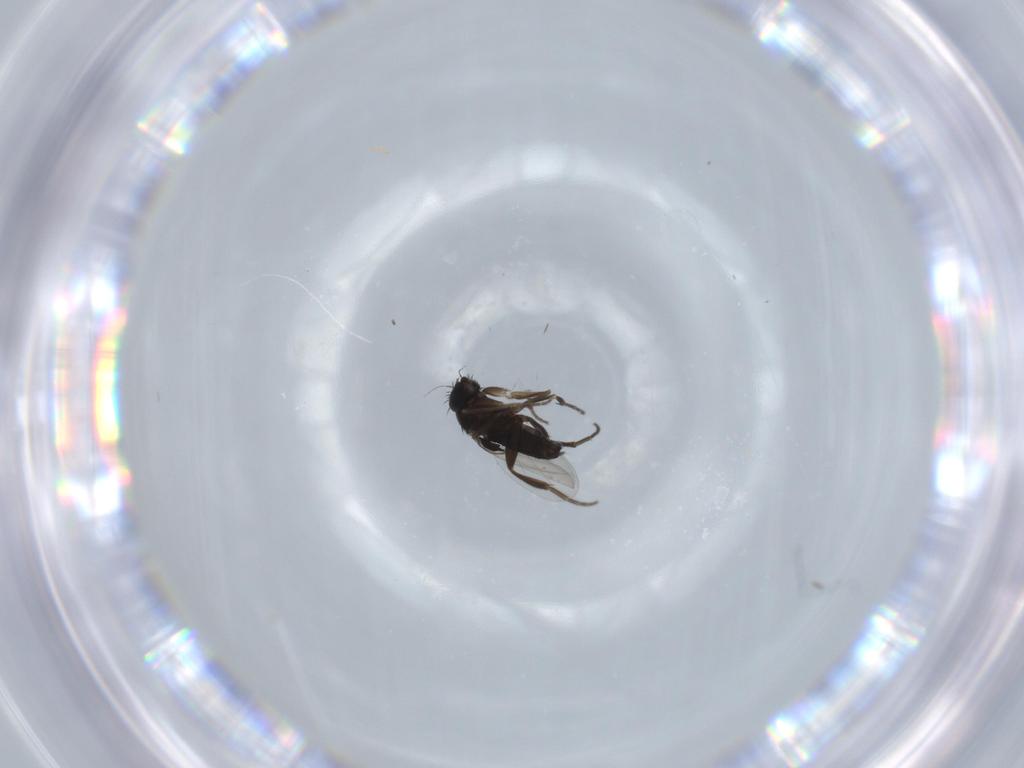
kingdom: Animalia
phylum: Arthropoda
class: Insecta
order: Diptera
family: Phoridae
